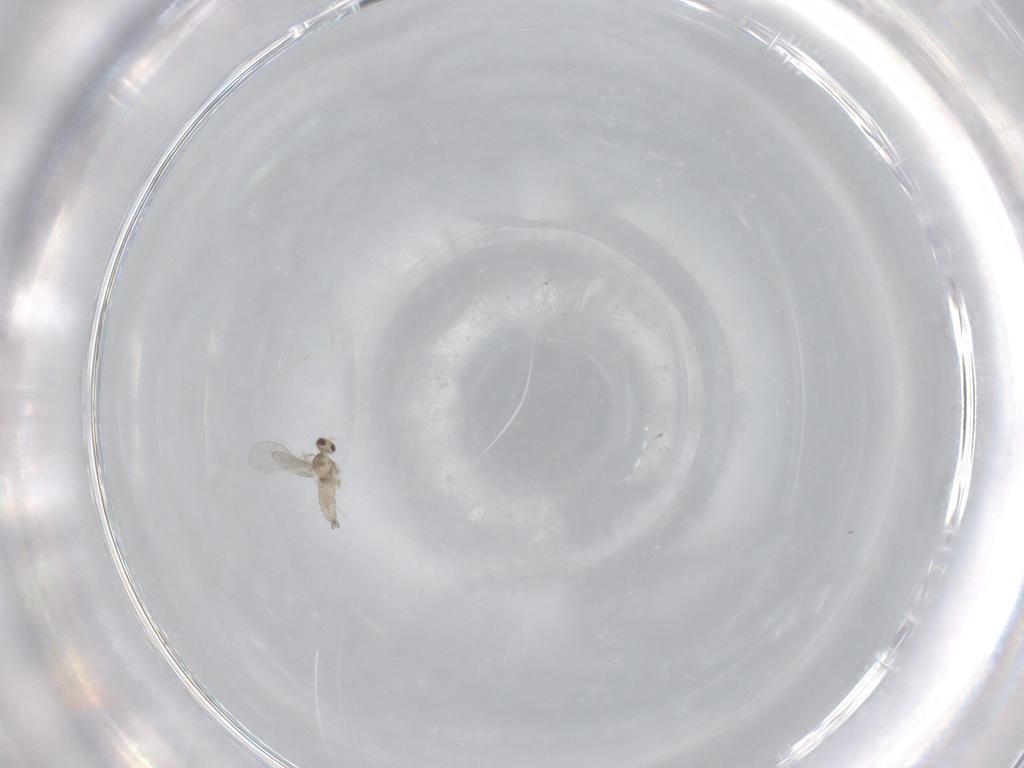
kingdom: Animalia
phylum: Arthropoda
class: Insecta
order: Diptera
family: Cecidomyiidae
